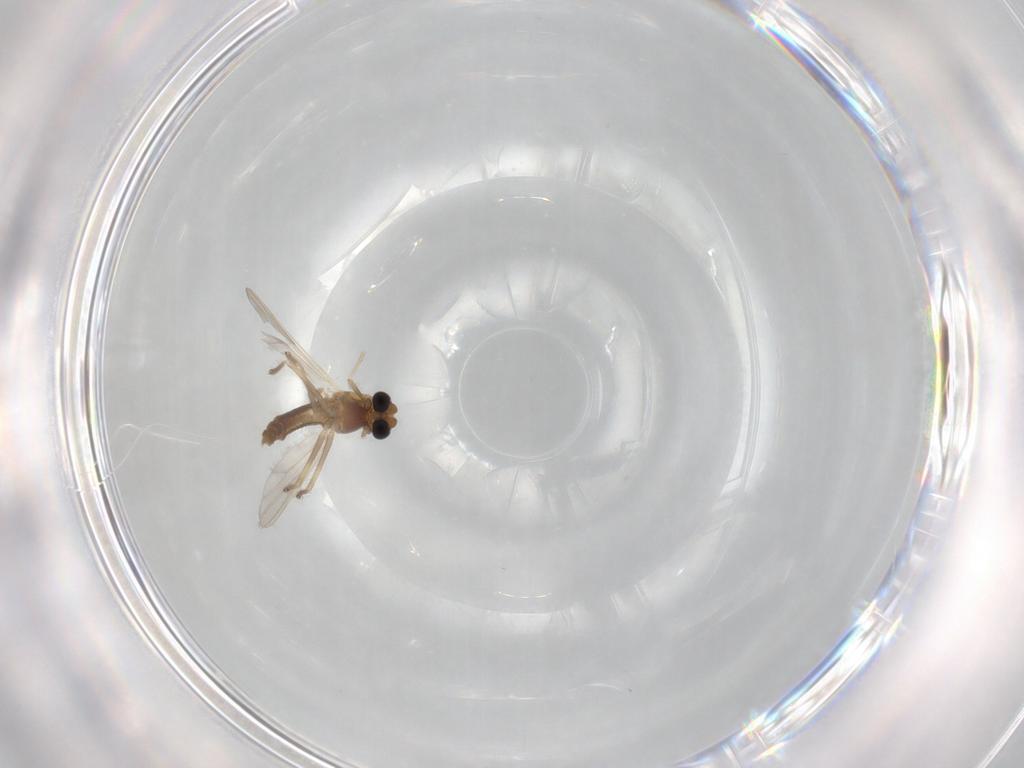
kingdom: Animalia
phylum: Arthropoda
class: Insecta
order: Diptera
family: Chironomidae
